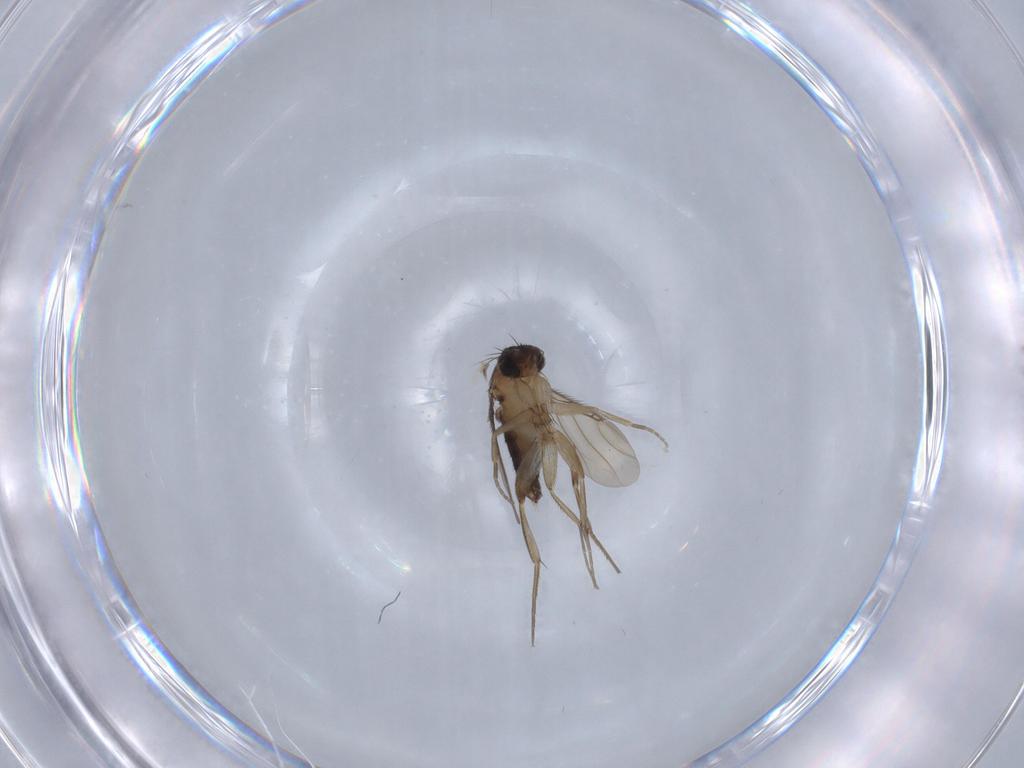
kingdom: Animalia
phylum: Arthropoda
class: Insecta
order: Diptera
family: Phoridae
